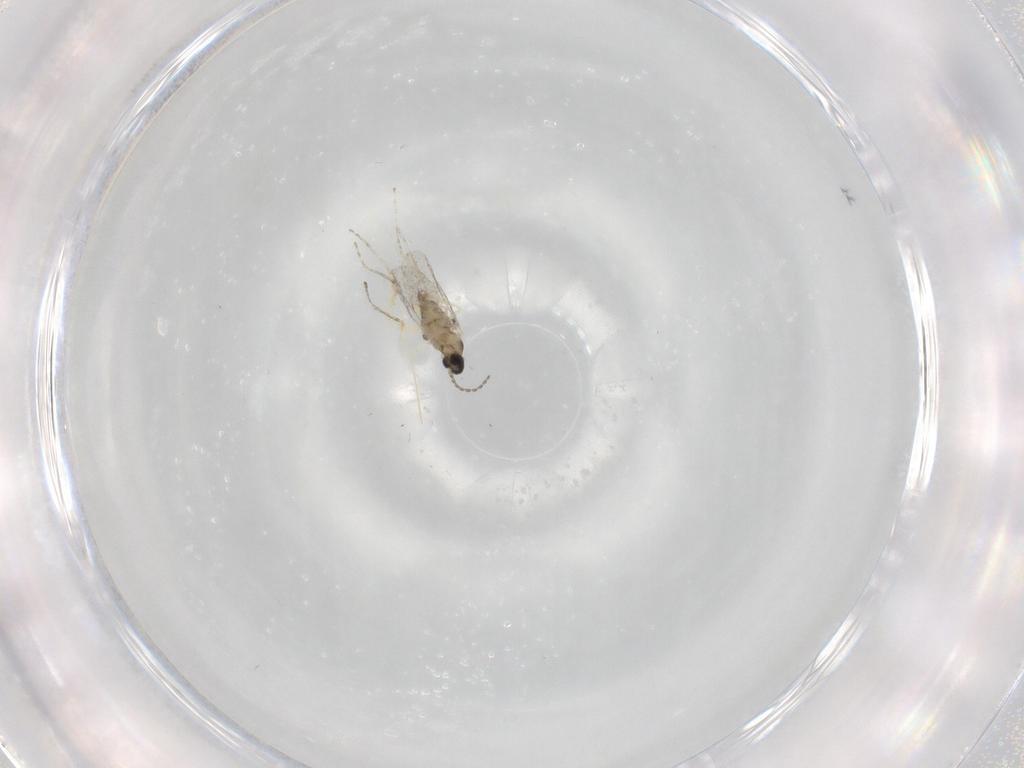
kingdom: Animalia
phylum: Arthropoda
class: Insecta
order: Diptera
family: Cecidomyiidae
